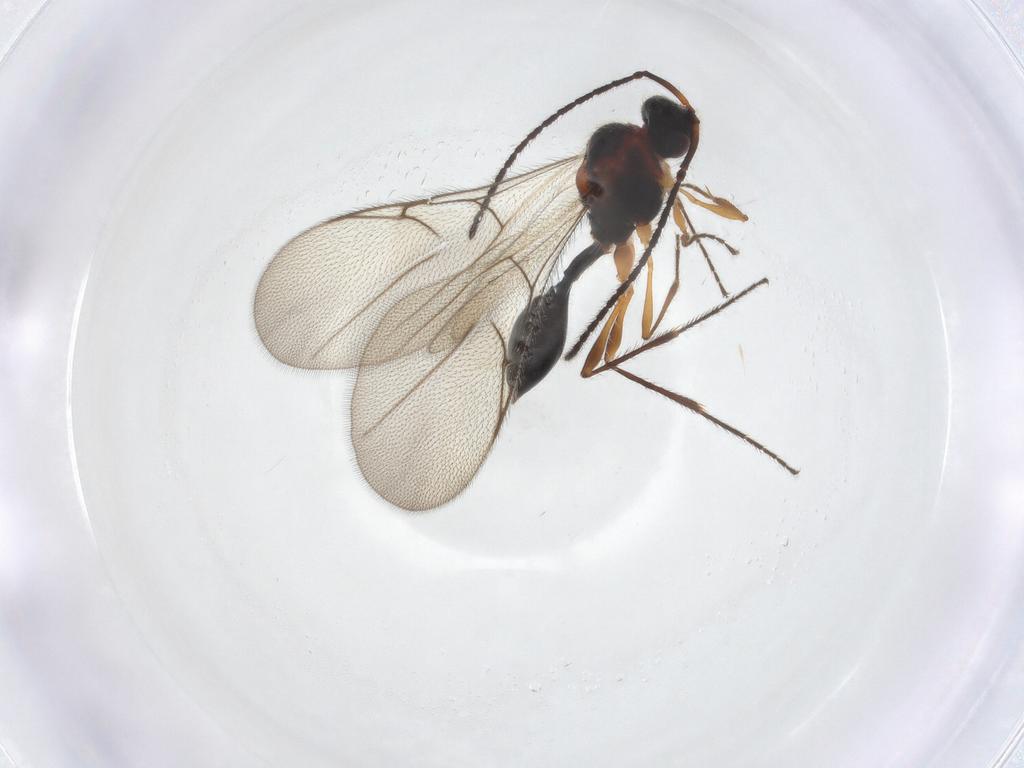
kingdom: Animalia
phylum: Arthropoda
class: Insecta
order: Hymenoptera
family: Diapriidae
